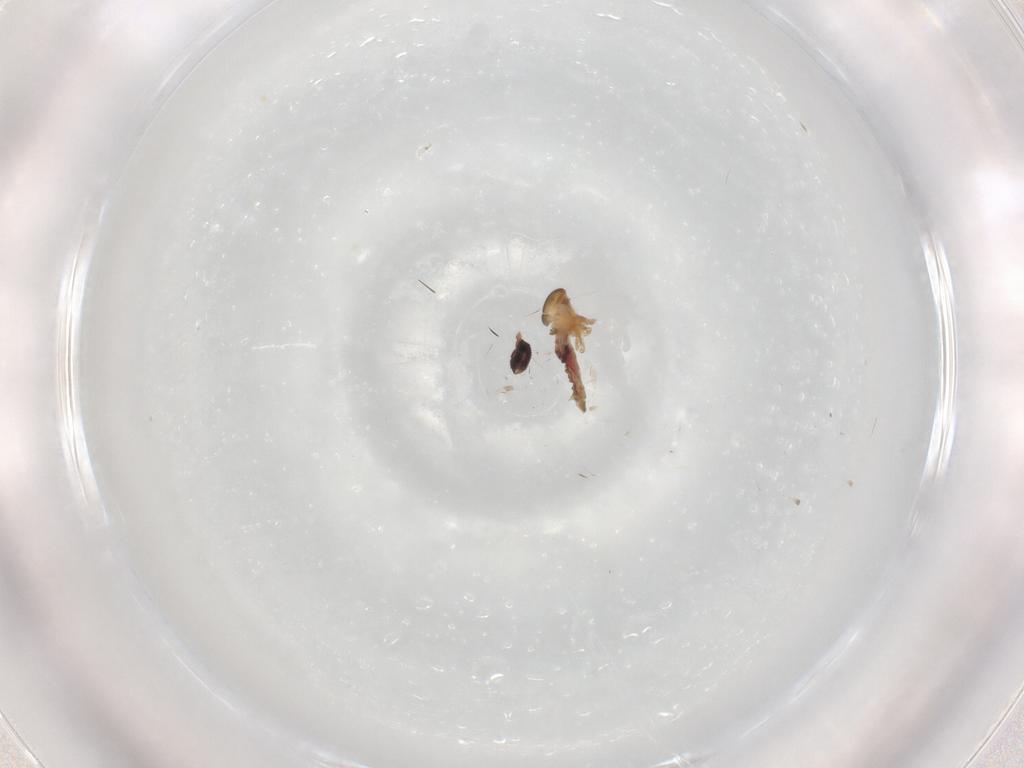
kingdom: Animalia
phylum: Arthropoda
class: Insecta
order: Diptera
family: Psychodidae
